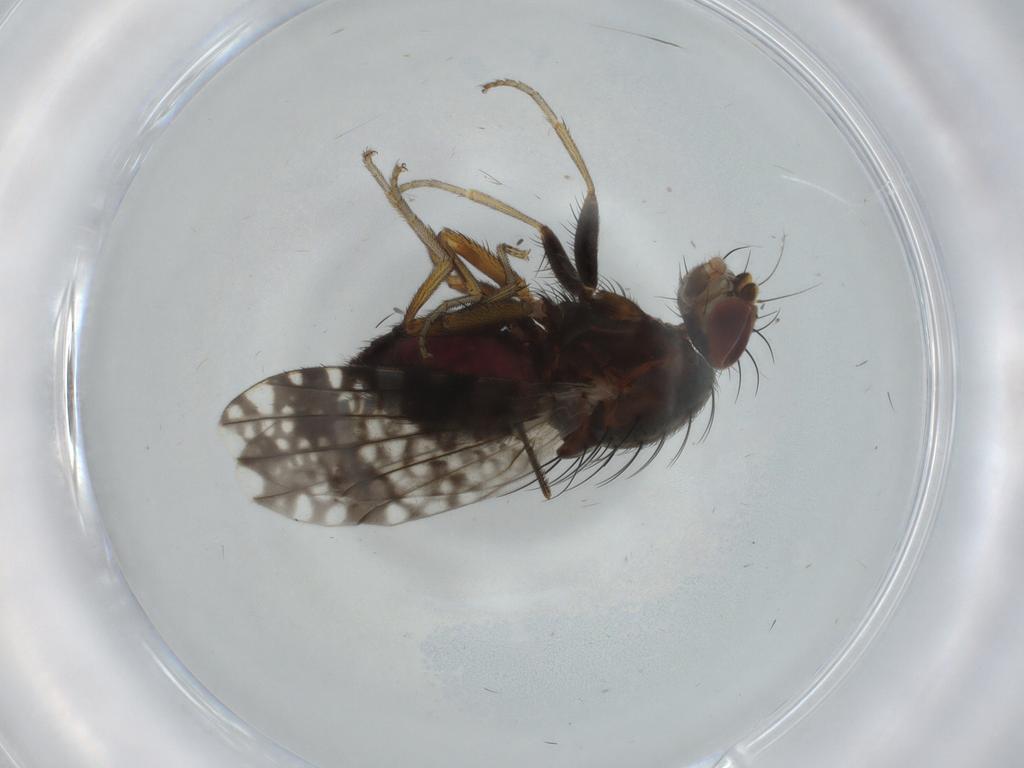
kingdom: Animalia
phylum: Arthropoda
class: Insecta
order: Diptera
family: Tephritidae
